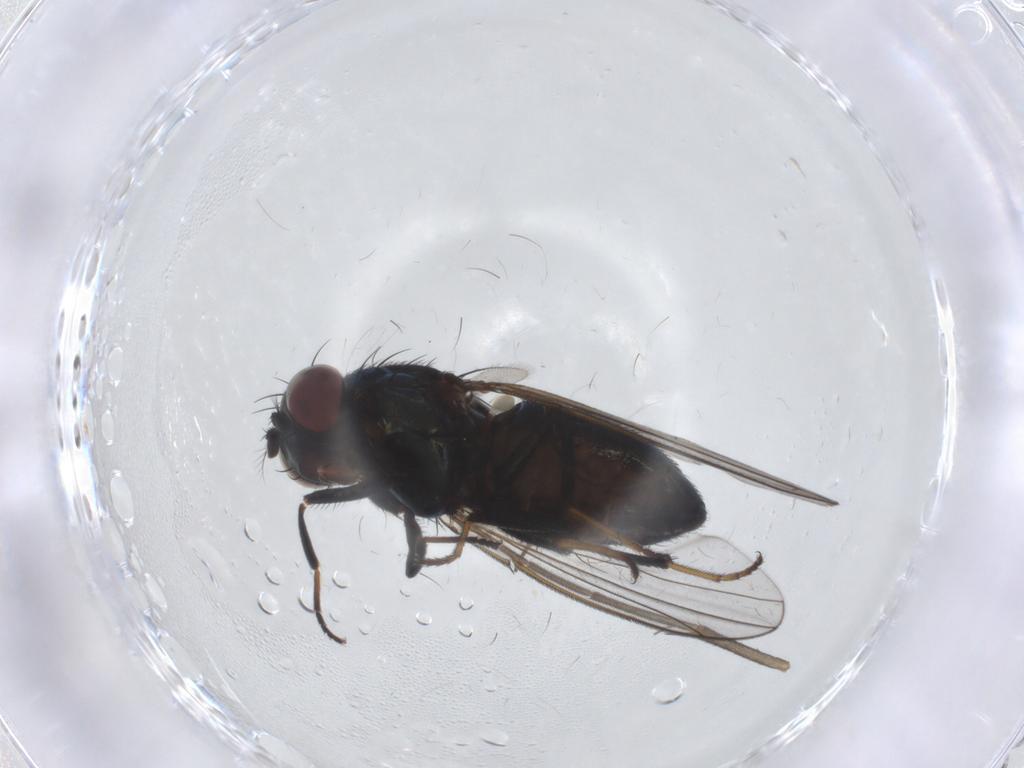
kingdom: Animalia
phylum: Arthropoda
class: Insecta
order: Diptera
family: Mycetophilidae
